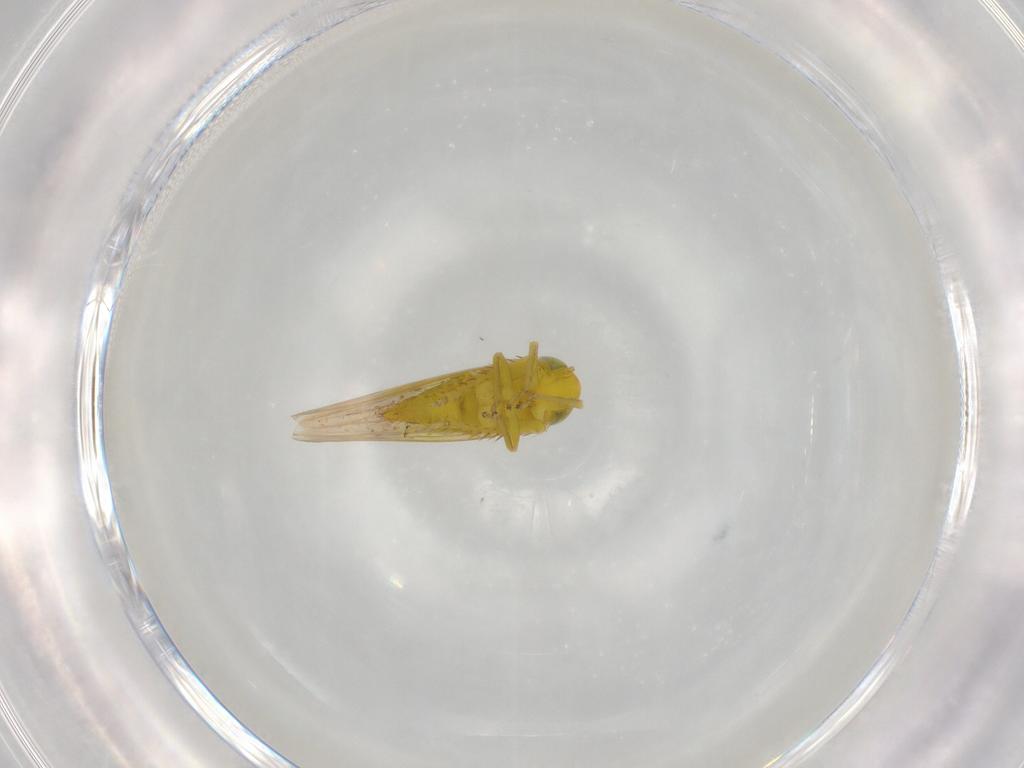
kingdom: Animalia
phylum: Arthropoda
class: Insecta
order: Hemiptera
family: Cicadellidae
